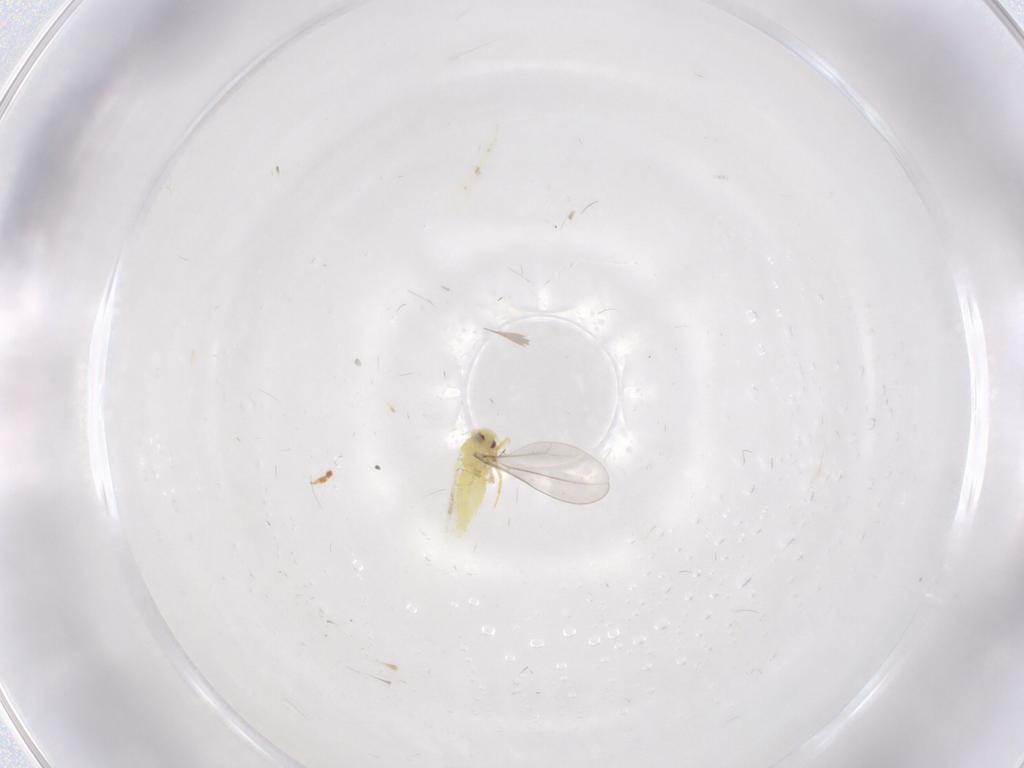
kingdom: Animalia
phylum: Arthropoda
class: Insecta
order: Hemiptera
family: Aleyrodidae
